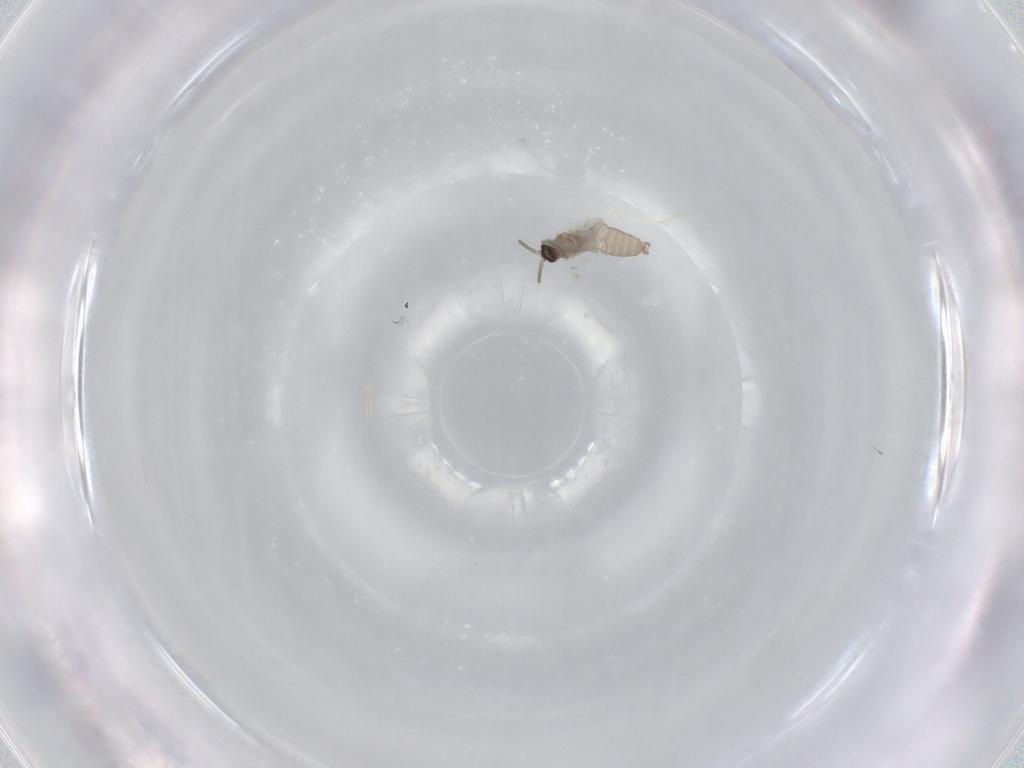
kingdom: Animalia
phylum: Arthropoda
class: Insecta
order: Diptera
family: Cecidomyiidae
